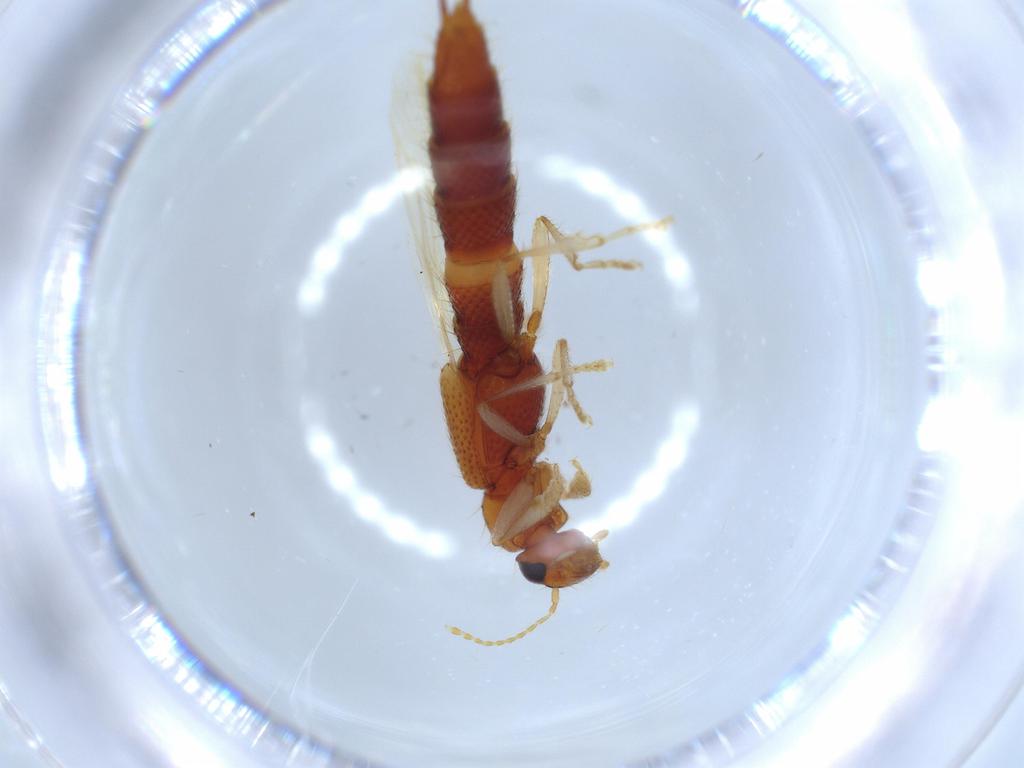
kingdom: Animalia
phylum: Arthropoda
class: Insecta
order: Coleoptera
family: Staphylinidae
